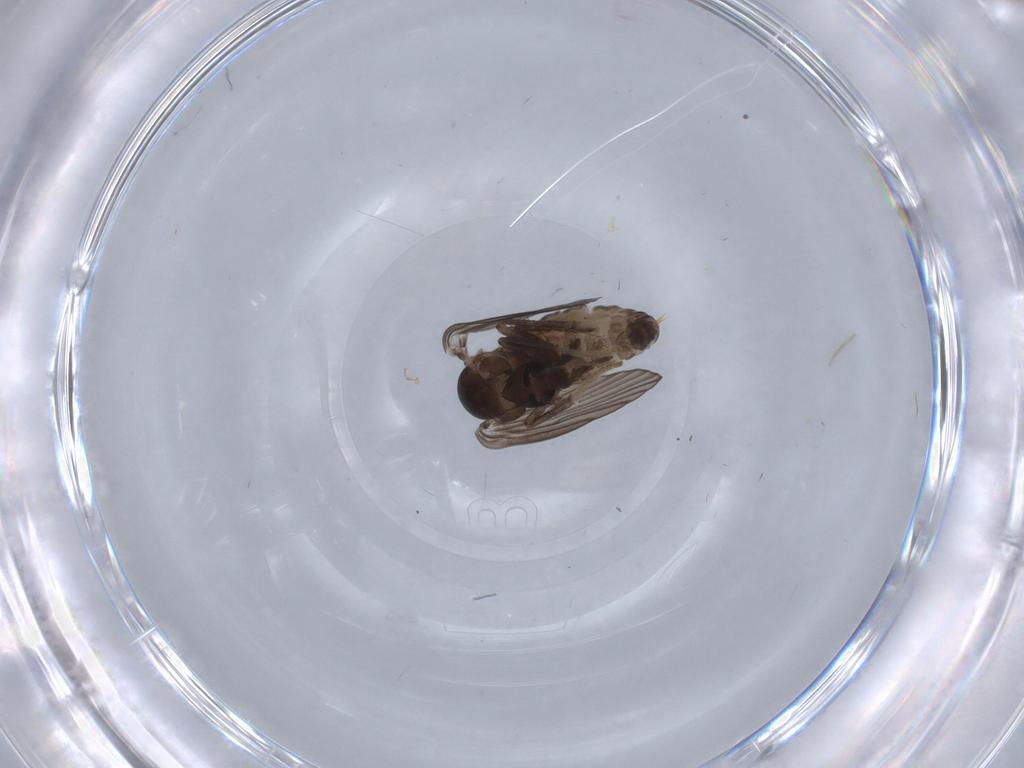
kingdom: Animalia
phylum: Arthropoda
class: Insecta
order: Diptera
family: Psychodidae
